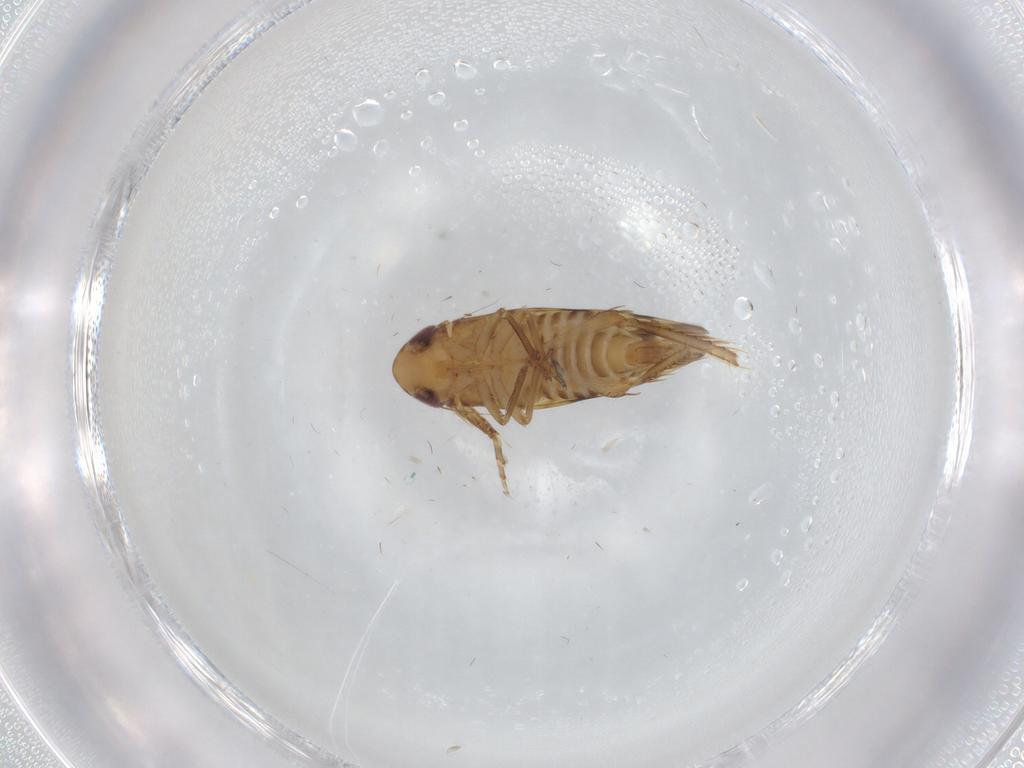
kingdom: Animalia
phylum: Arthropoda
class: Insecta
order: Hemiptera
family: Cicadellidae
